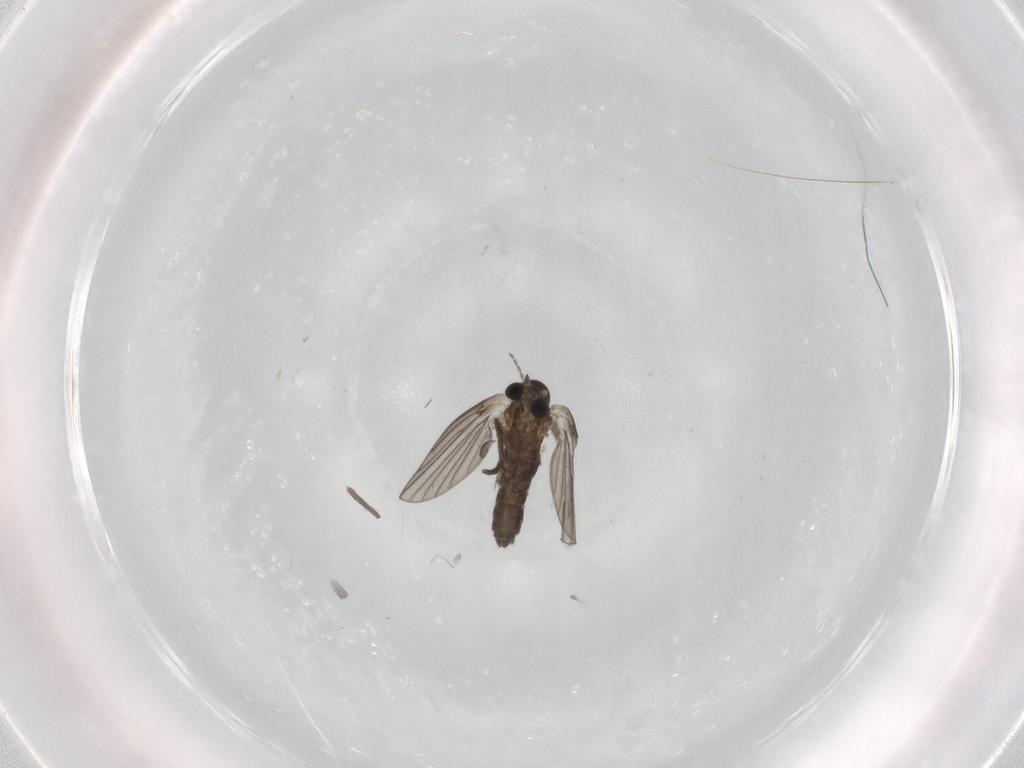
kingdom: Animalia
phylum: Arthropoda
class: Insecta
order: Diptera
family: Chironomidae
